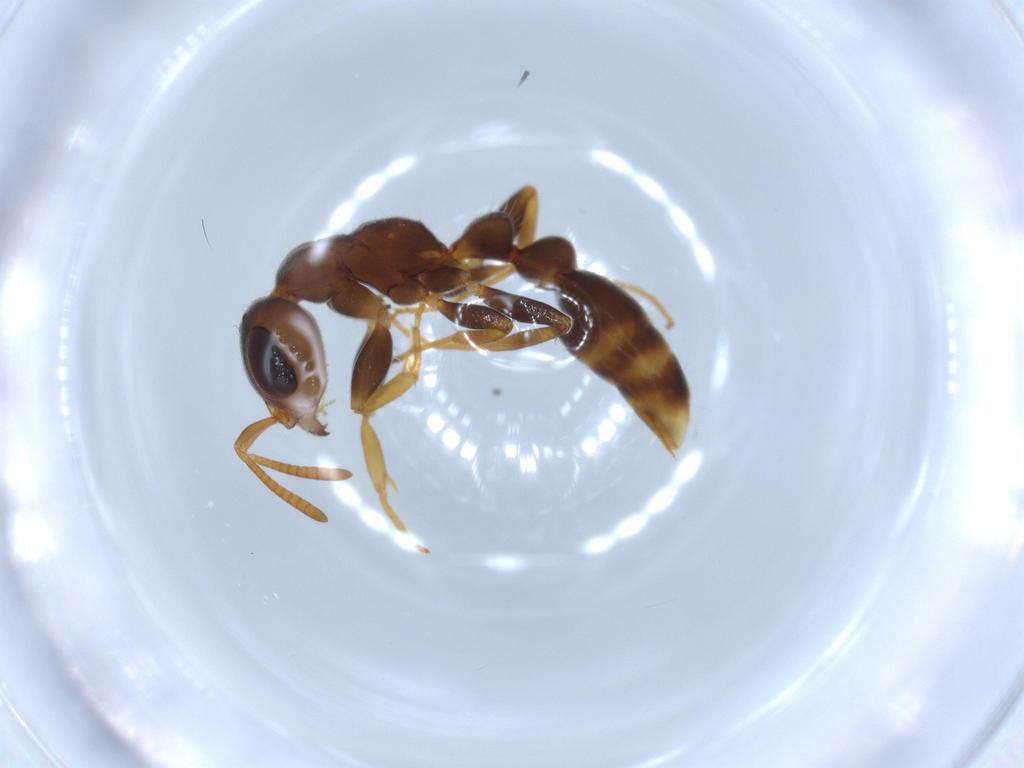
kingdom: Animalia
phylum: Arthropoda
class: Insecta
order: Hymenoptera
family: Formicidae
